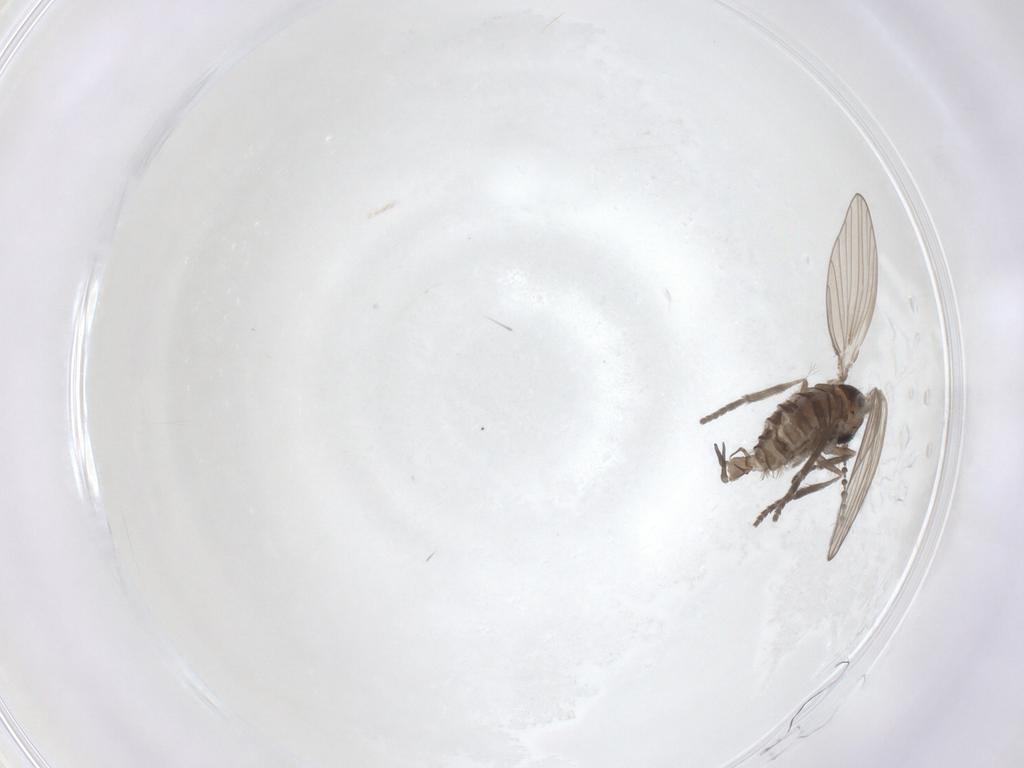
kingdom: Animalia
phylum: Arthropoda
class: Insecta
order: Diptera
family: Psychodidae
